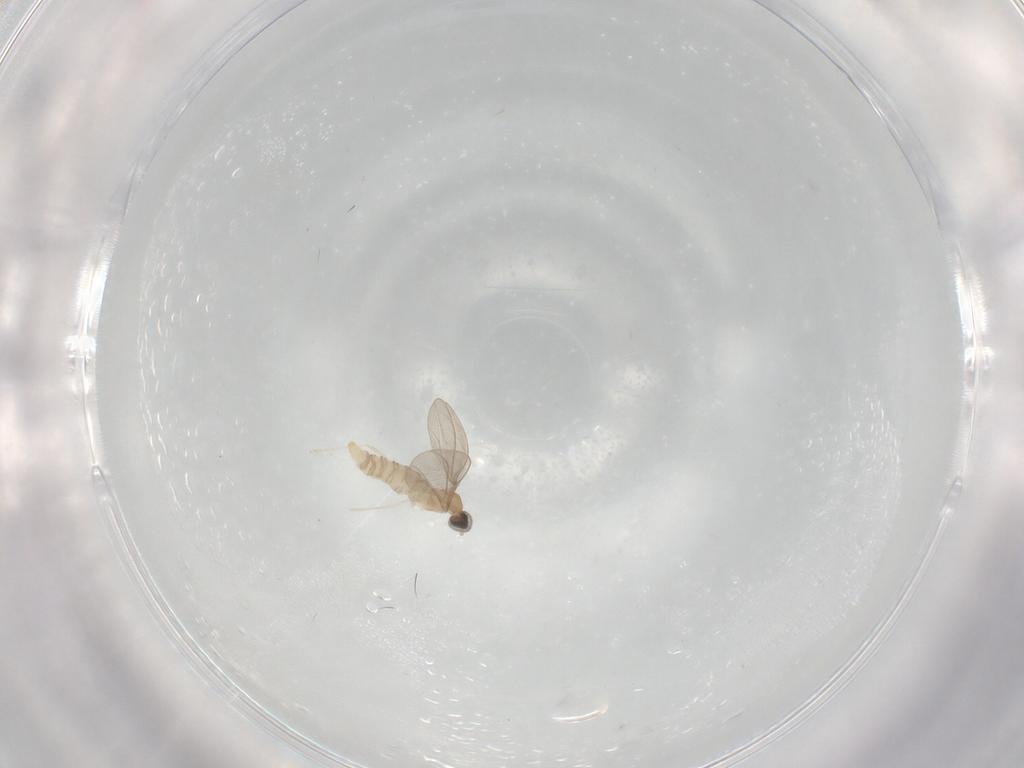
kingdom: Animalia
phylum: Arthropoda
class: Insecta
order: Diptera
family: Cecidomyiidae
